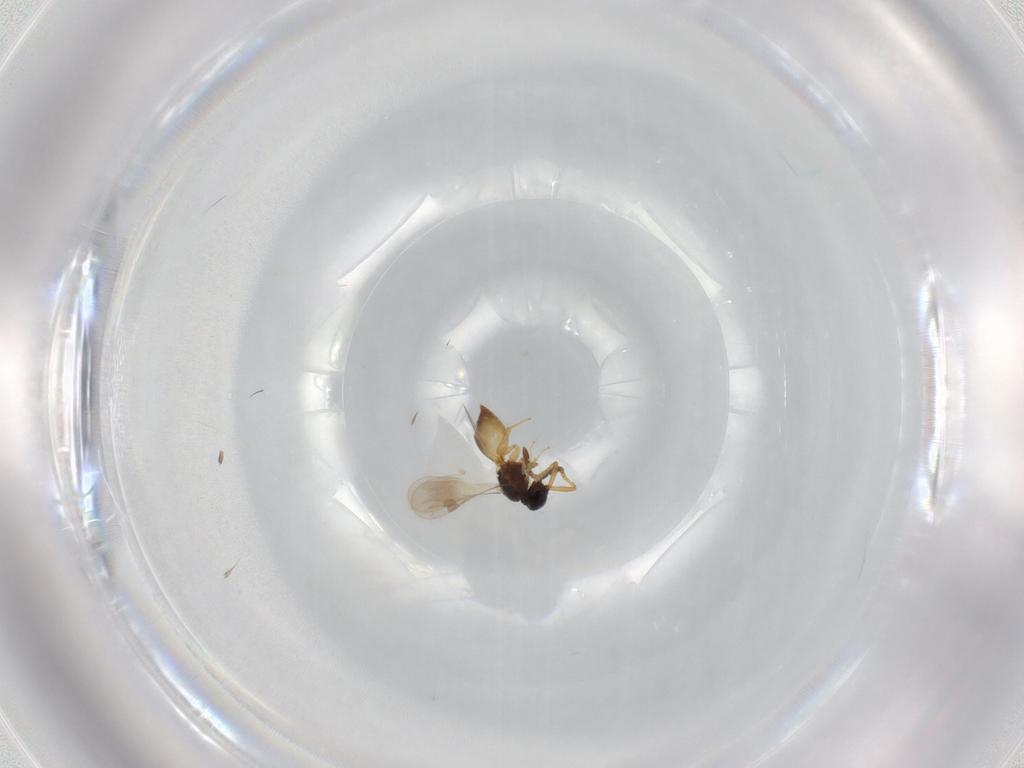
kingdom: Animalia
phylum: Arthropoda
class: Insecta
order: Hymenoptera
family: Megaspilidae
